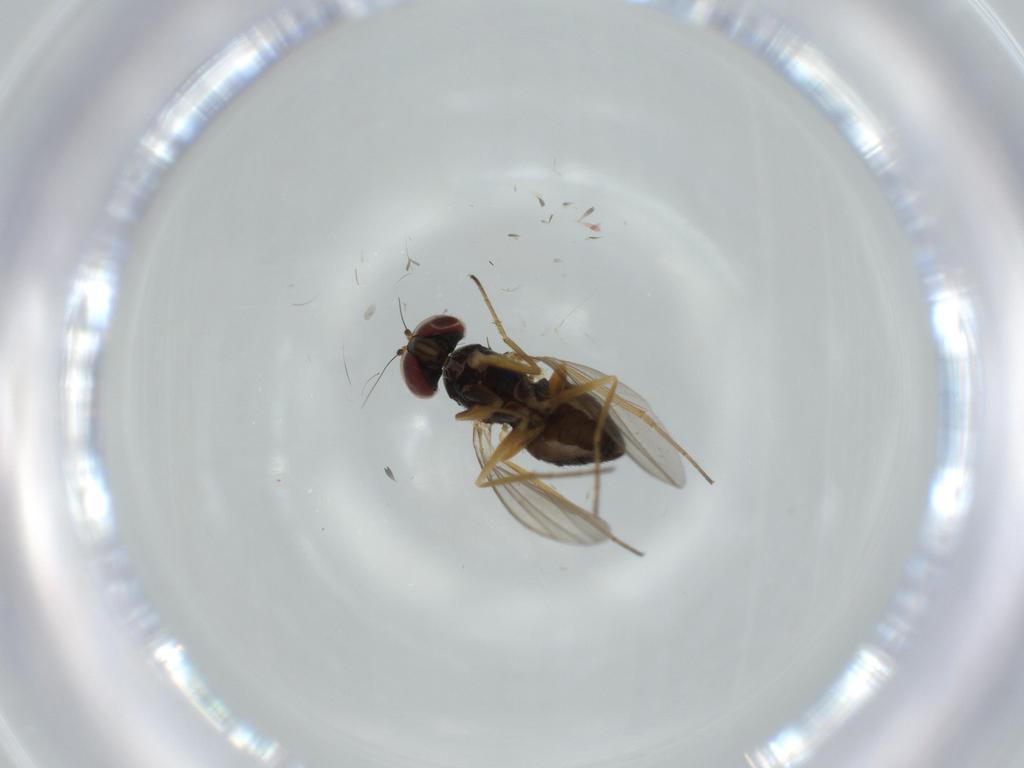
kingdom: Animalia
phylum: Arthropoda
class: Insecta
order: Diptera
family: Dolichopodidae
